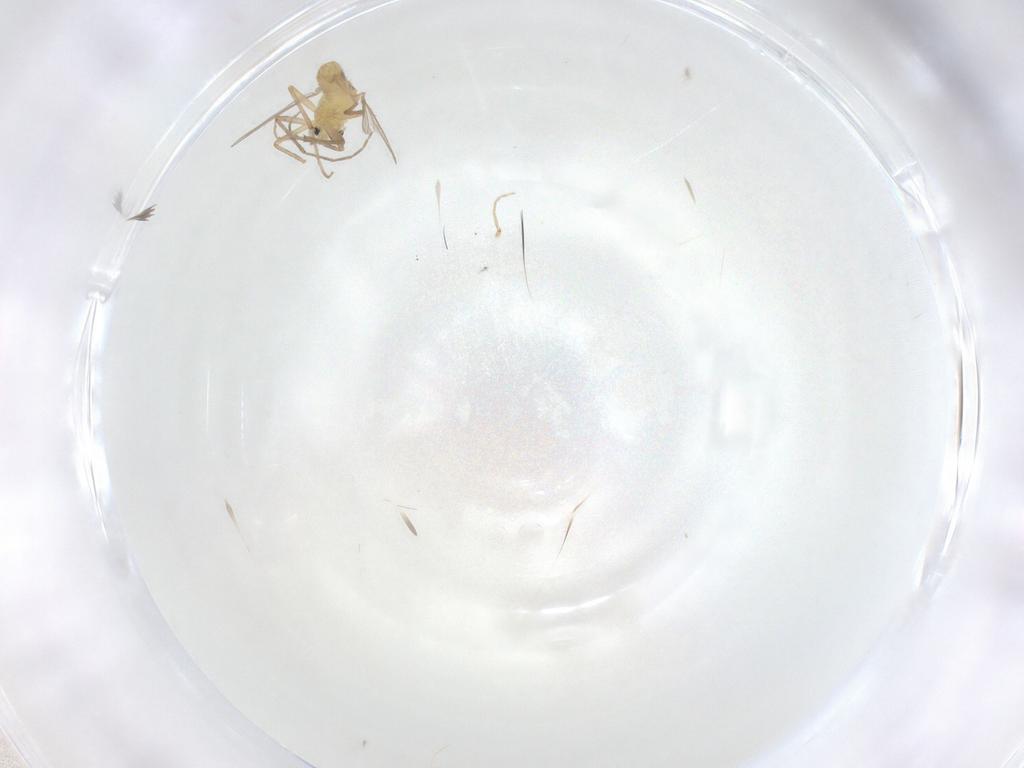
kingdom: Animalia
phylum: Arthropoda
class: Insecta
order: Diptera
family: Chironomidae
